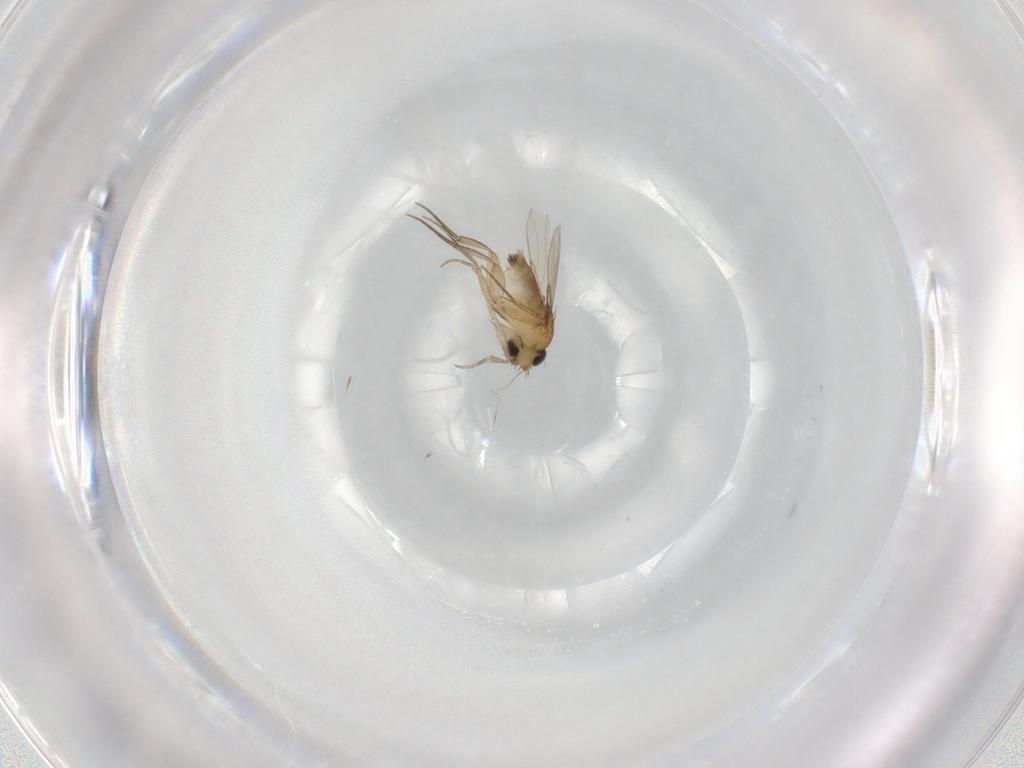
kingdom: Animalia
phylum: Arthropoda
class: Insecta
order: Diptera
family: Phoridae
